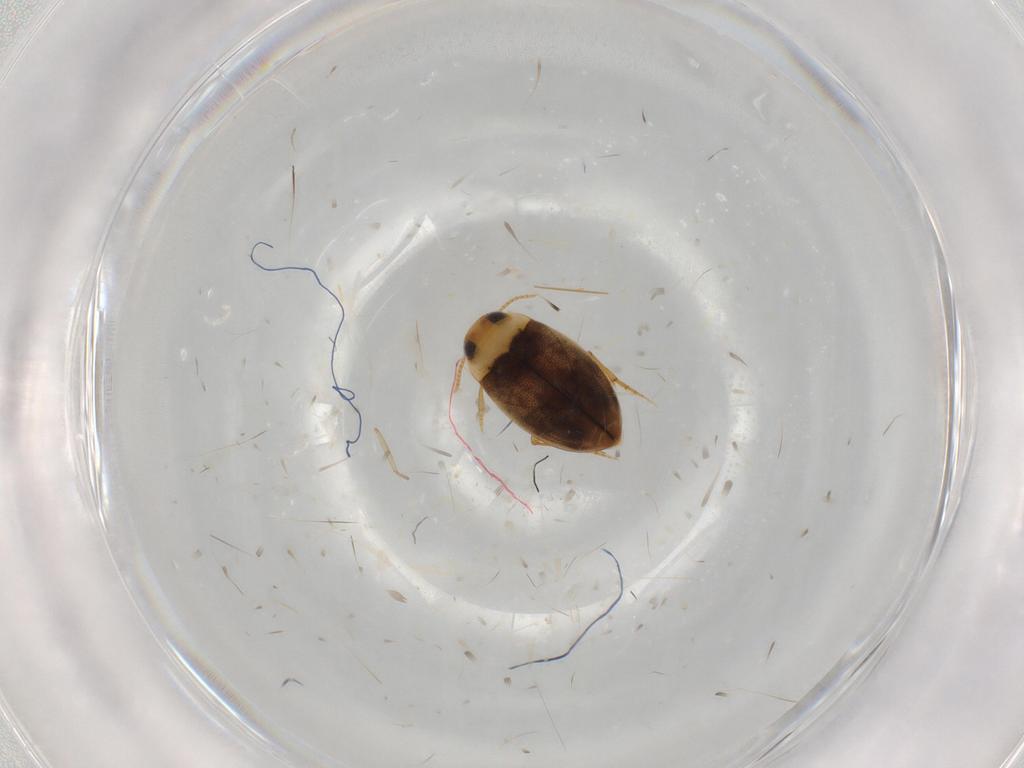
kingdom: Animalia
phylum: Arthropoda
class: Insecta
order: Coleoptera
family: Dytiscidae
